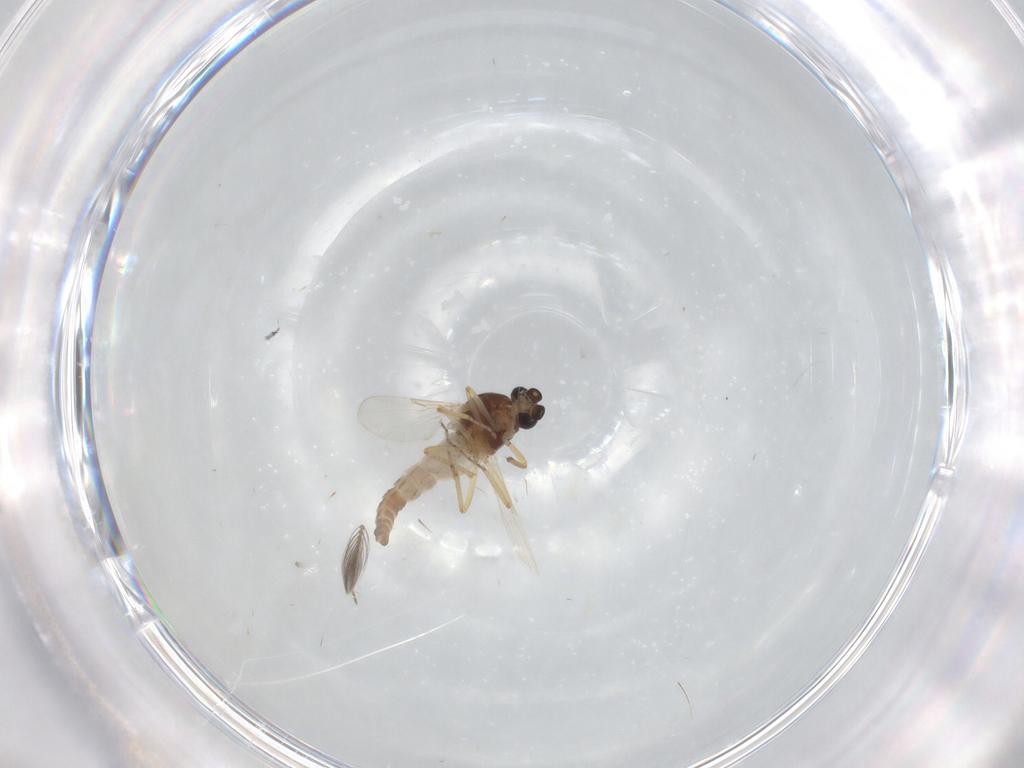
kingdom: Animalia
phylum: Arthropoda
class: Insecta
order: Diptera
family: Ceratopogonidae
